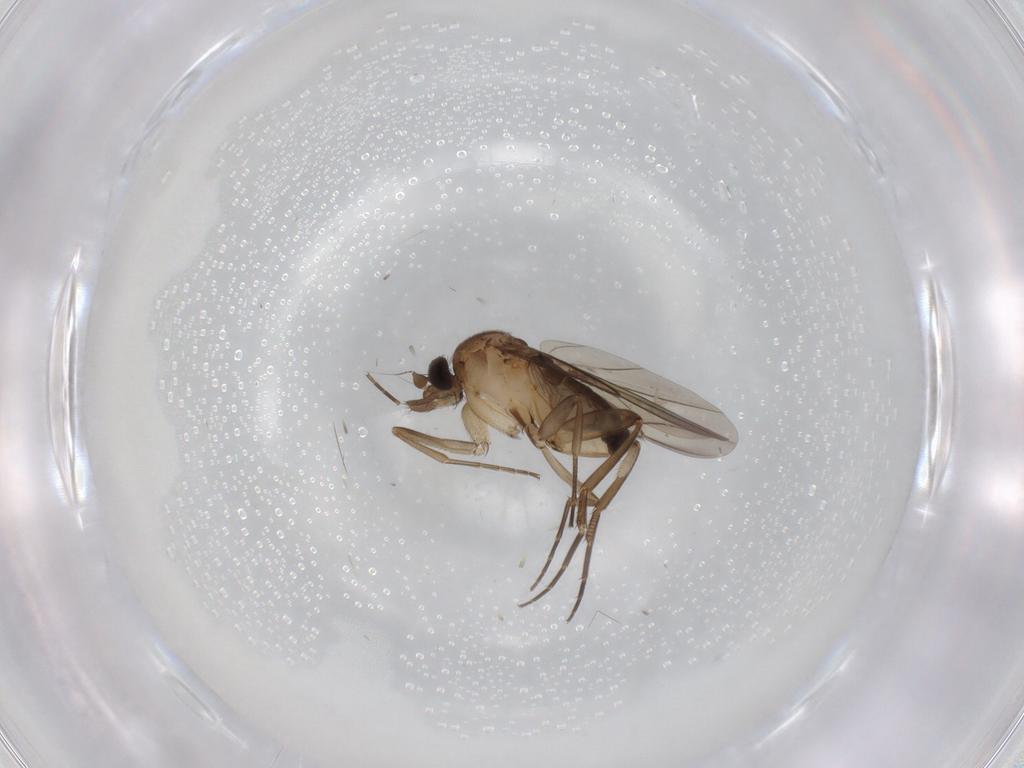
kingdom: Animalia
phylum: Arthropoda
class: Insecta
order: Diptera
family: Phoridae
